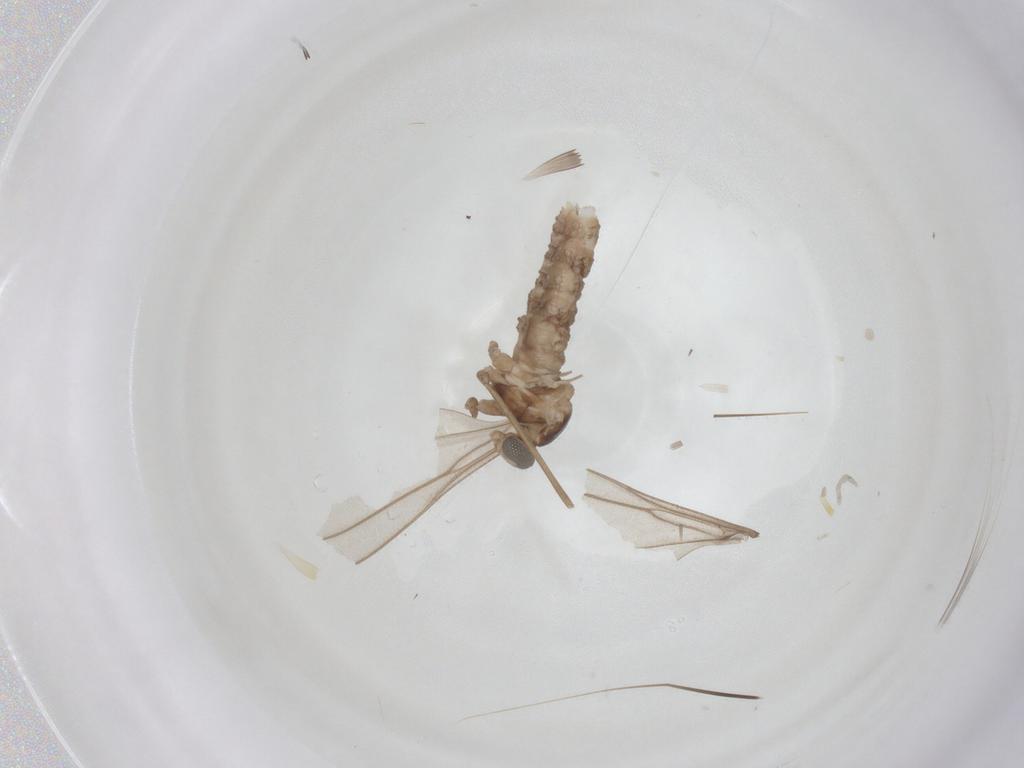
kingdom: Animalia
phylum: Arthropoda
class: Insecta
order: Diptera
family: Cecidomyiidae
